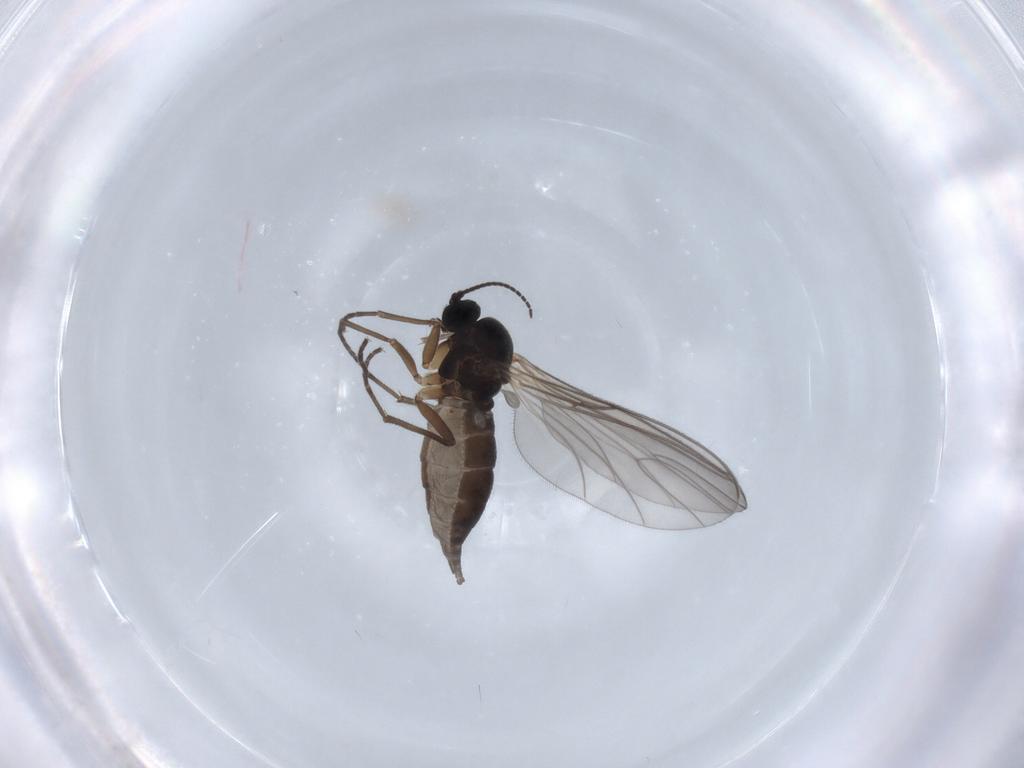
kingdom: Animalia
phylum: Arthropoda
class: Insecta
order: Diptera
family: Sciaridae
